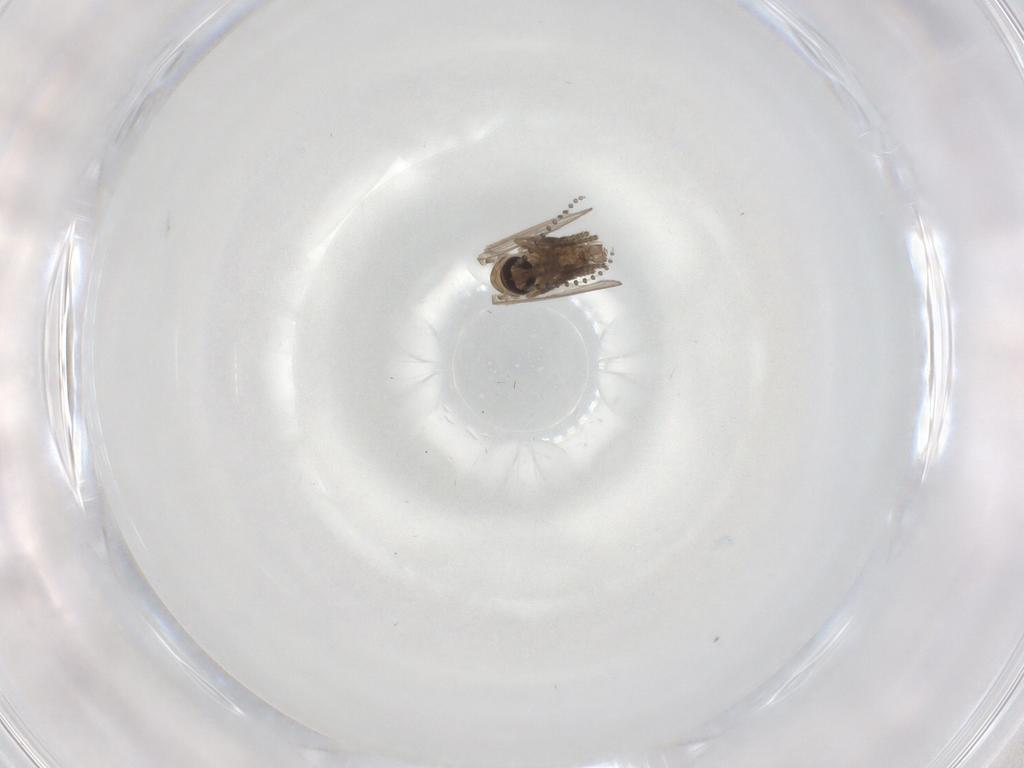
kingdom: Animalia
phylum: Arthropoda
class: Insecta
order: Diptera
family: Psychodidae
